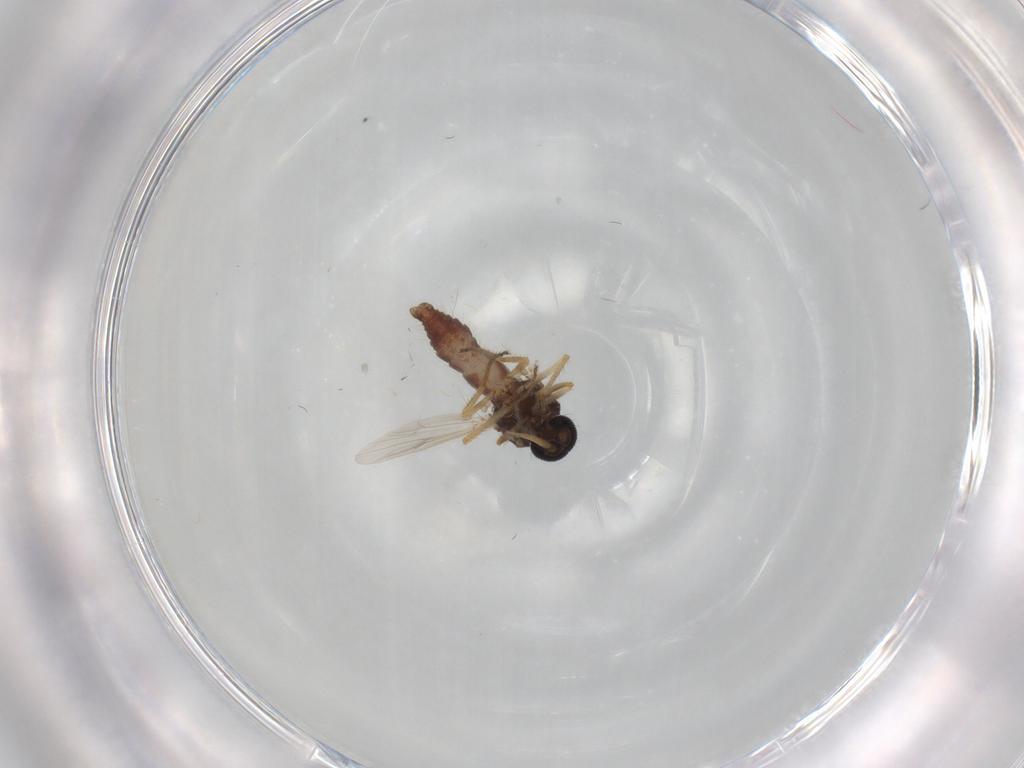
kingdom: Animalia
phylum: Arthropoda
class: Insecta
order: Diptera
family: Ceratopogonidae
